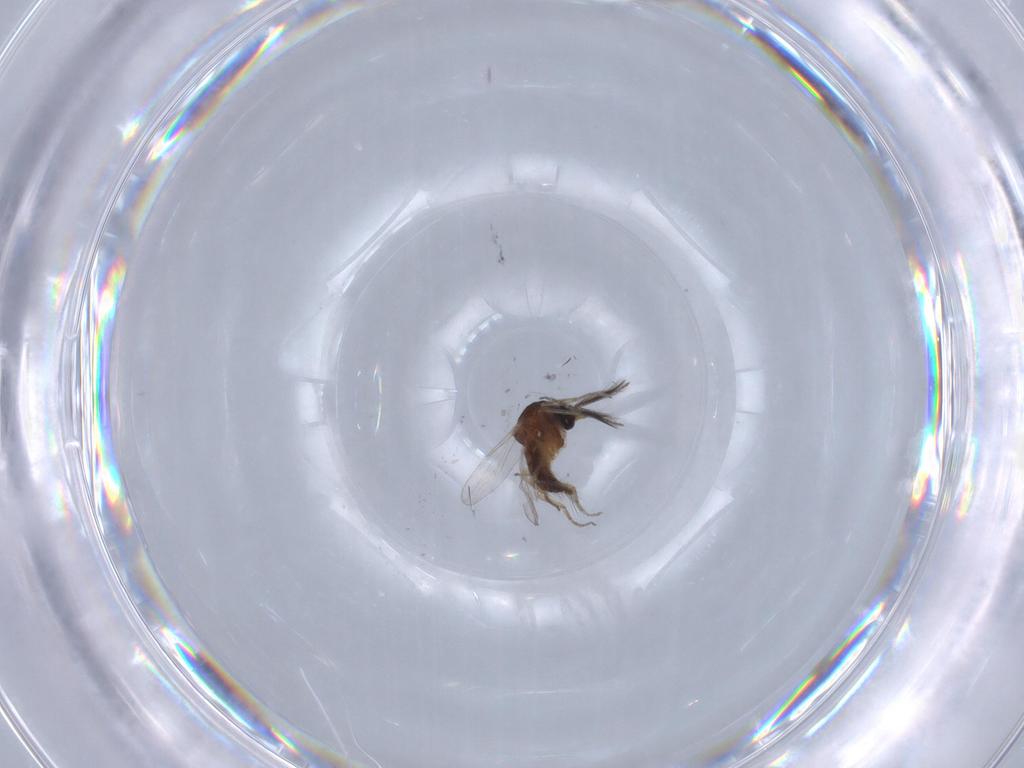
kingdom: Animalia
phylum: Arthropoda
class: Insecta
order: Diptera
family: Ceratopogonidae
